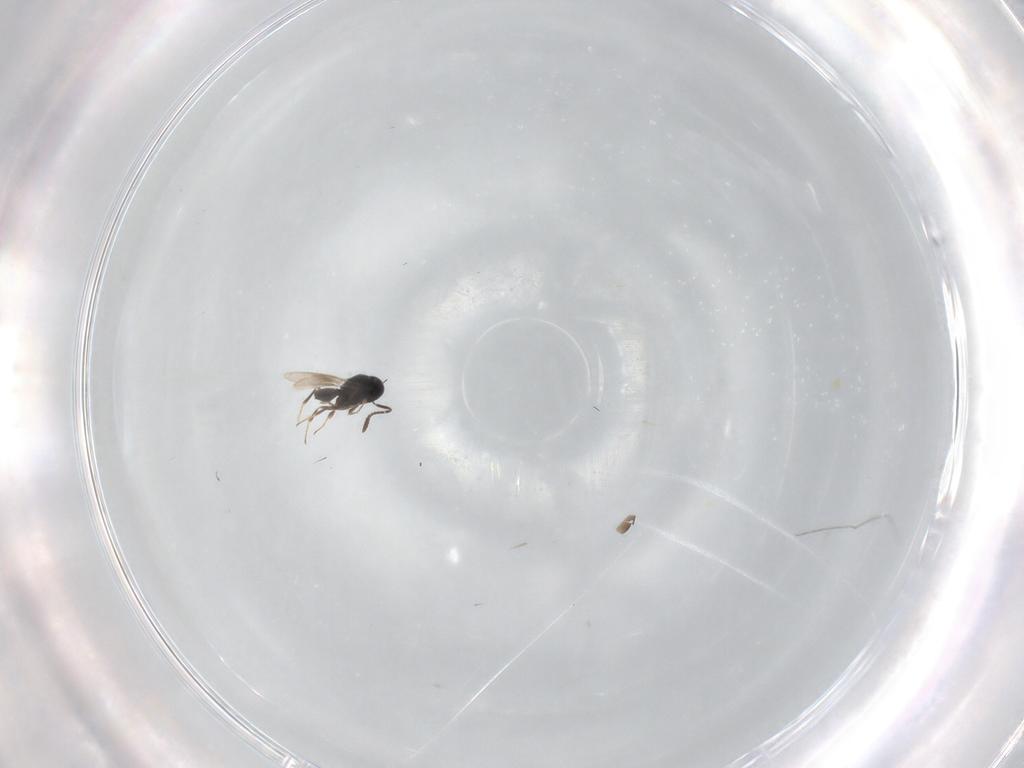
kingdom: Animalia
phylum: Arthropoda
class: Insecta
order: Hymenoptera
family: Scelionidae
